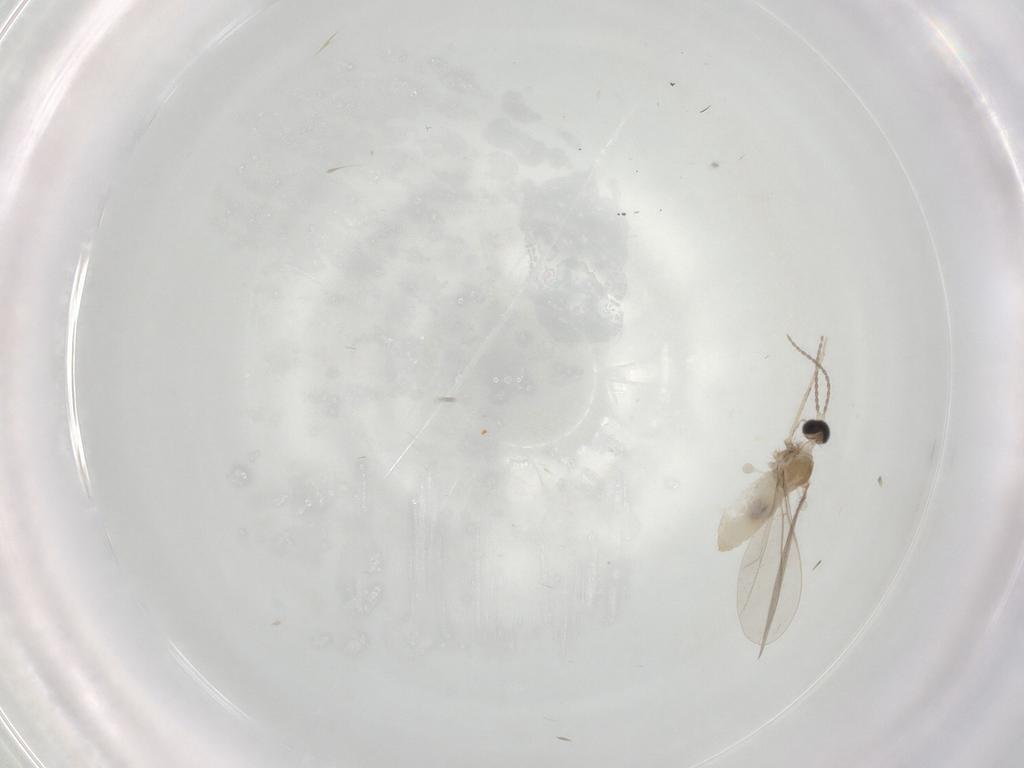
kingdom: Animalia
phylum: Arthropoda
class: Insecta
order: Diptera
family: Cecidomyiidae
